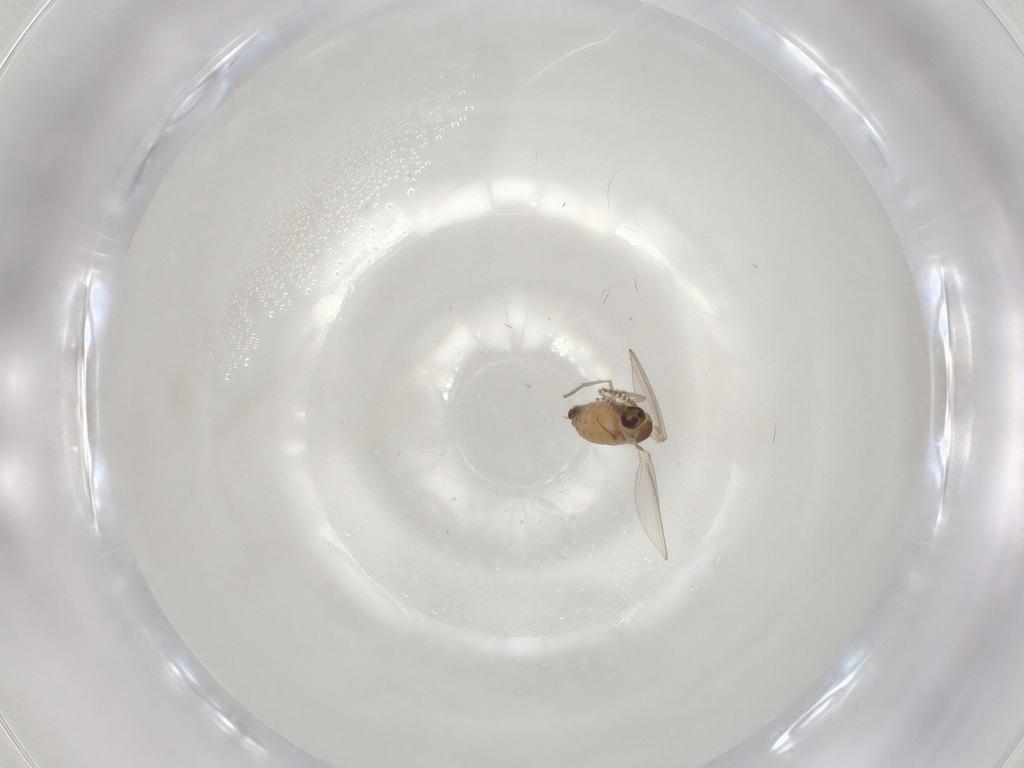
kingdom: Animalia
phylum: Arthropoda
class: Insecta
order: Diptera
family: Psychodidae
